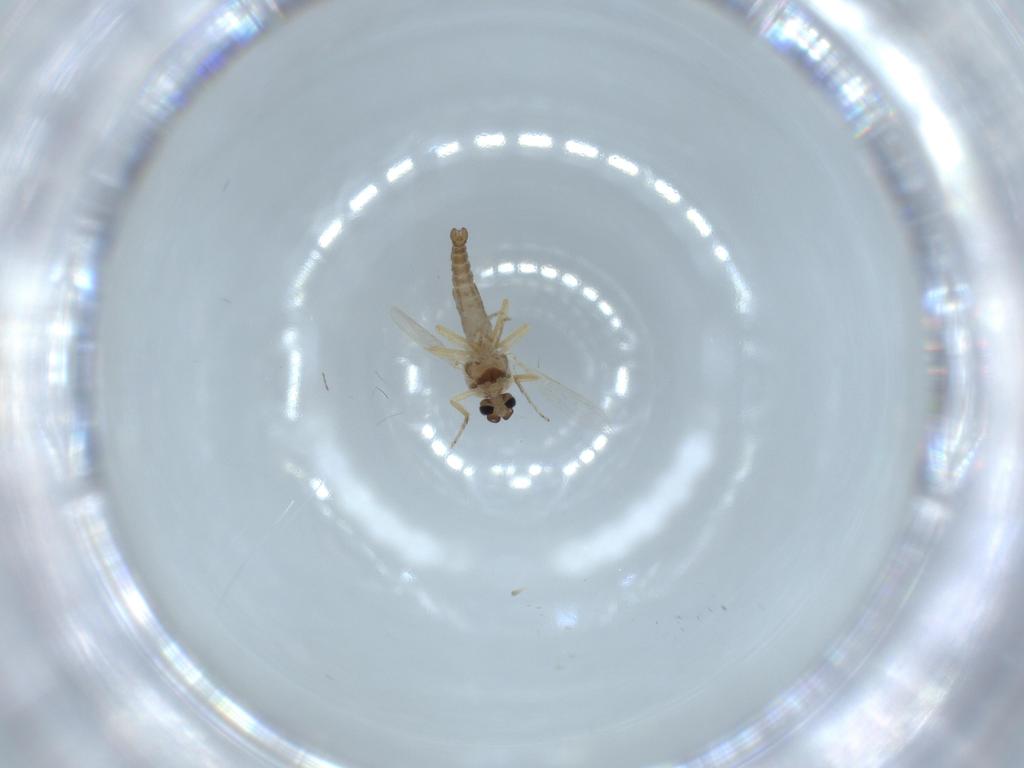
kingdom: Animalia
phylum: Arthropoda
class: Insecta
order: Diptera
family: Ceratopogonidae
